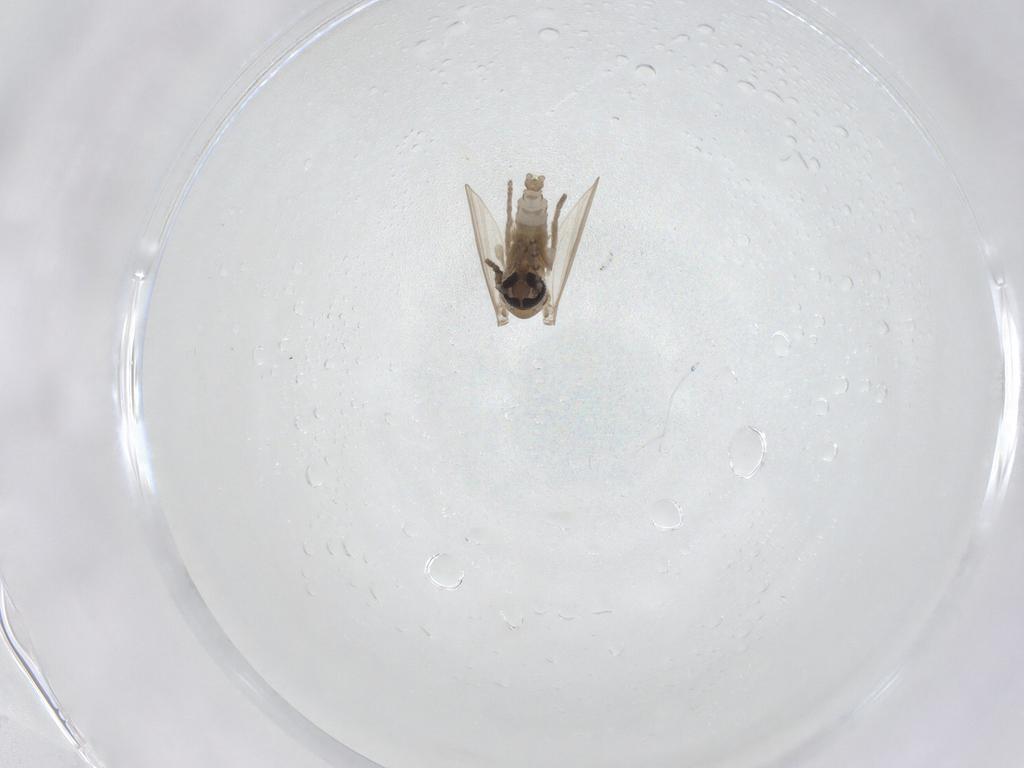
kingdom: Animalia
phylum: Arthropoda
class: Insecta
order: Diptera
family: Psychodidae
